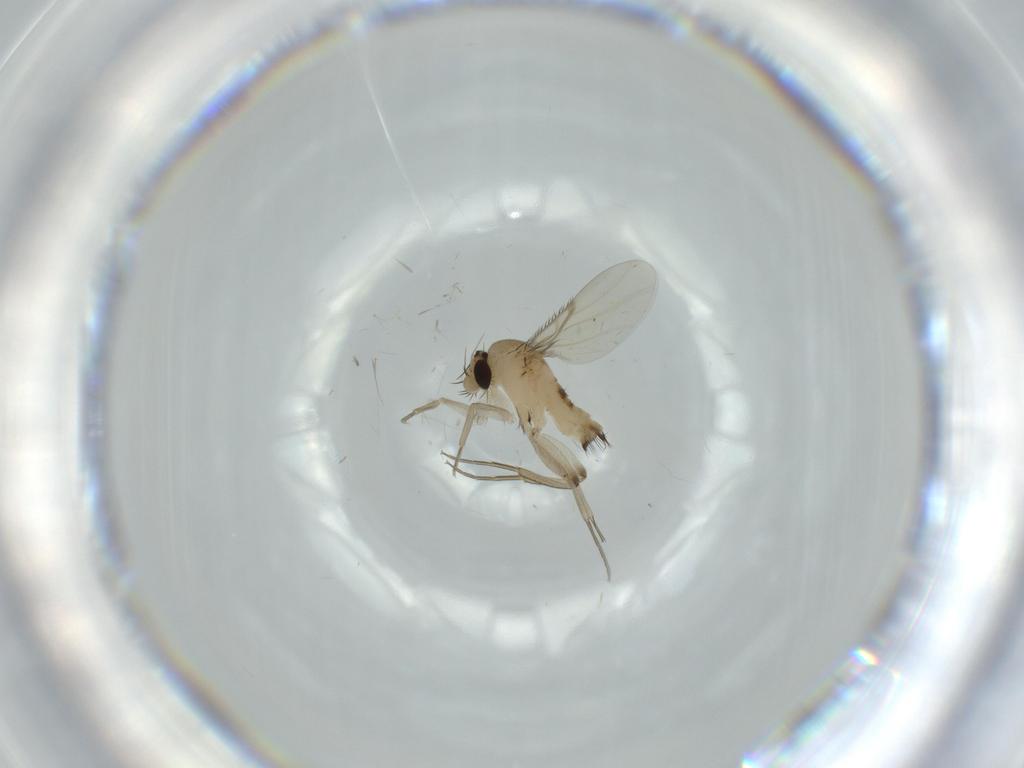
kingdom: Animalia
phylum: Arthropoda
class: Insecta
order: Diptera
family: Phoridae
